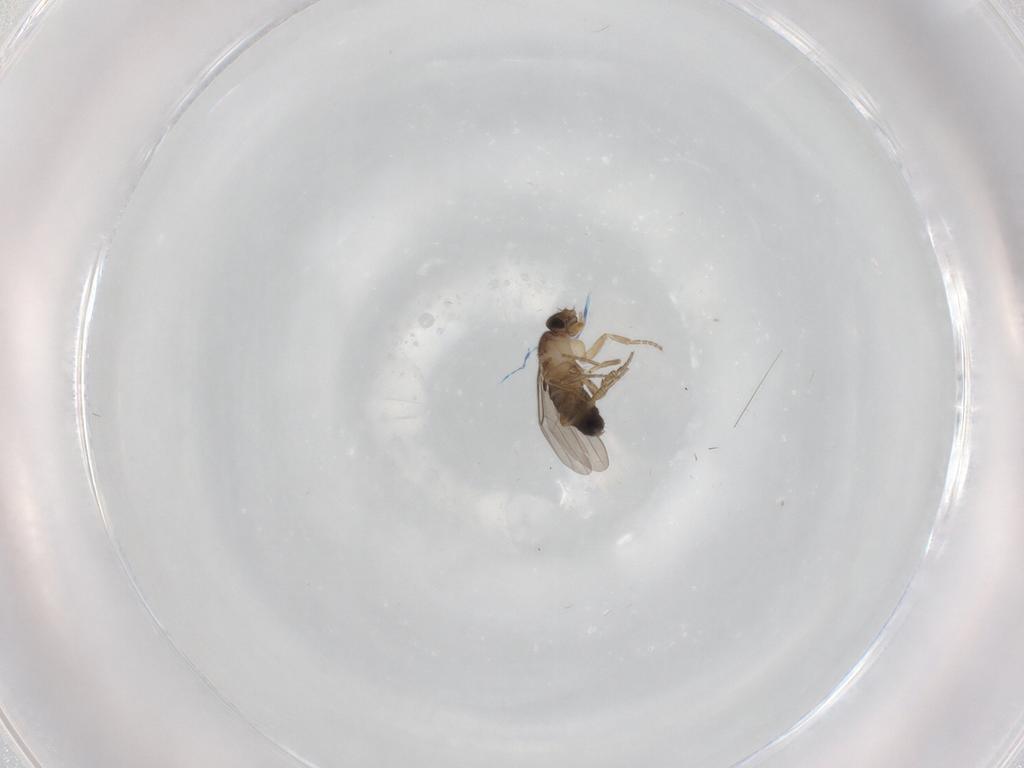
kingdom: Animalia
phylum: Arthropoda
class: Insecta
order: Diptera
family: Phoridae
